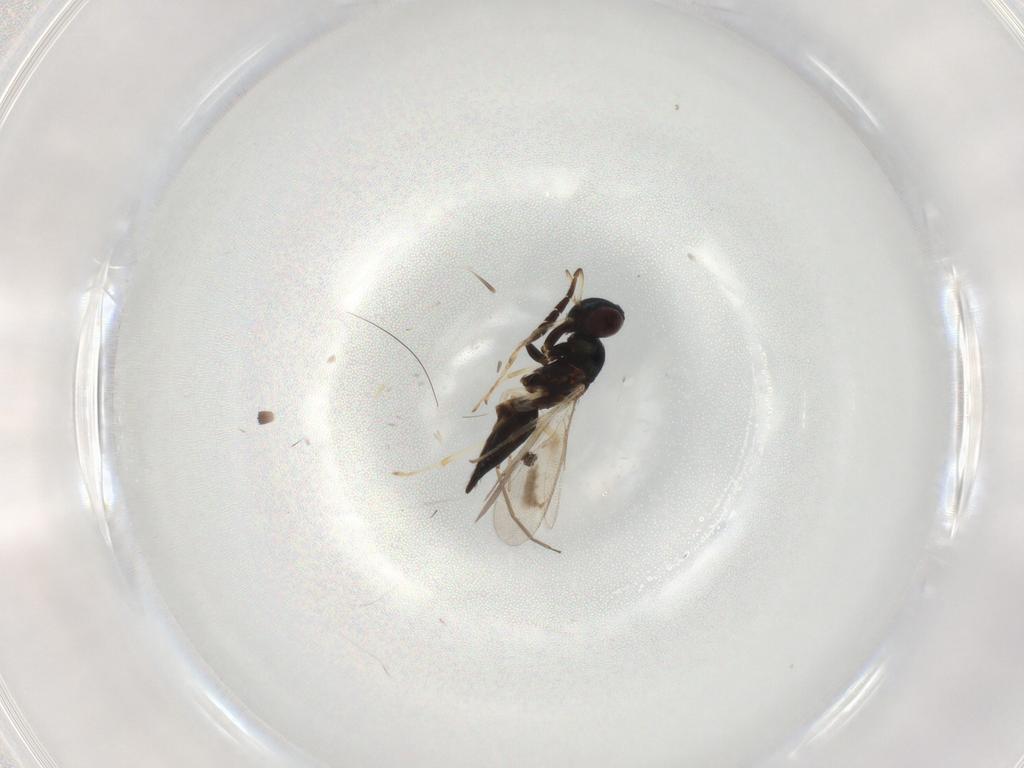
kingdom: Animalia
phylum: Arthropoda
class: Insecta
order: Hymenoptera
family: Eulophidae
